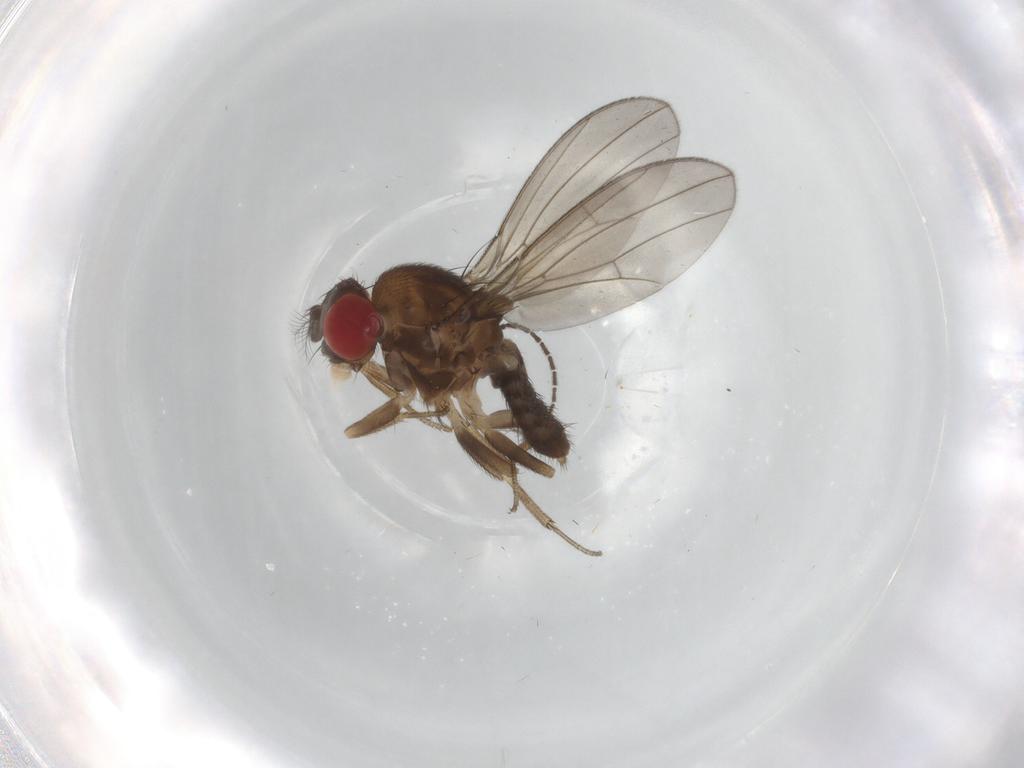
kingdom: Animalia
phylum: Arthropoda
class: Insecta
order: Diptera
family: Drosophilidae
